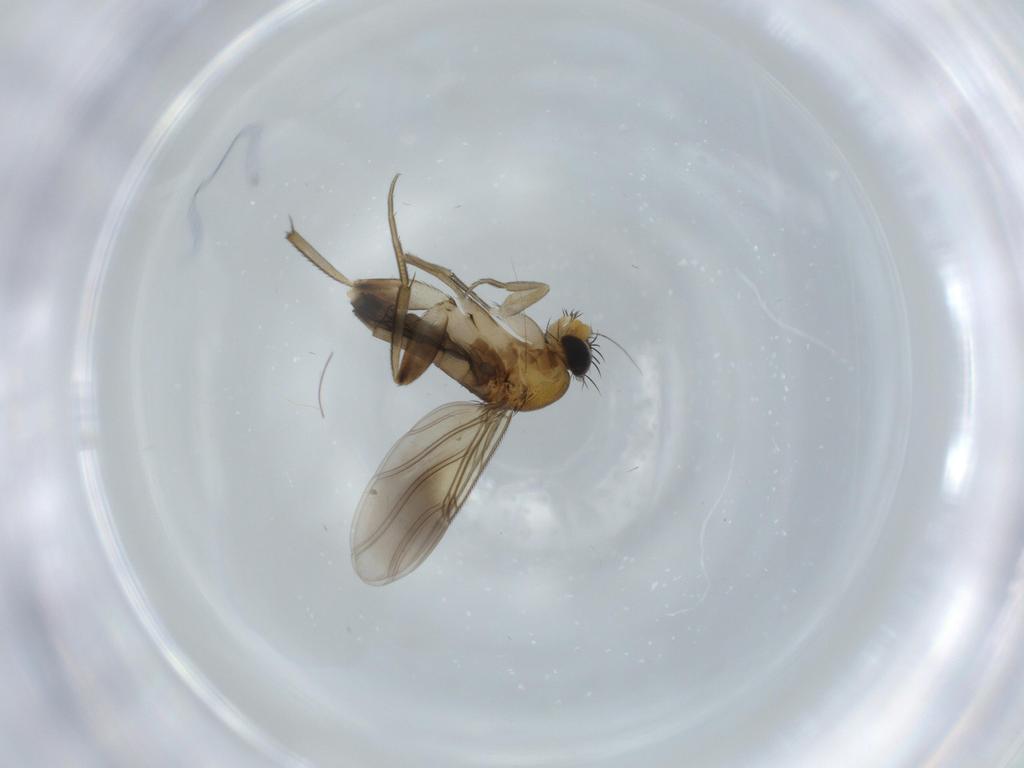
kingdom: Animalia
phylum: Arthropoda
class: Insecta
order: Diptera
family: Phoridae
